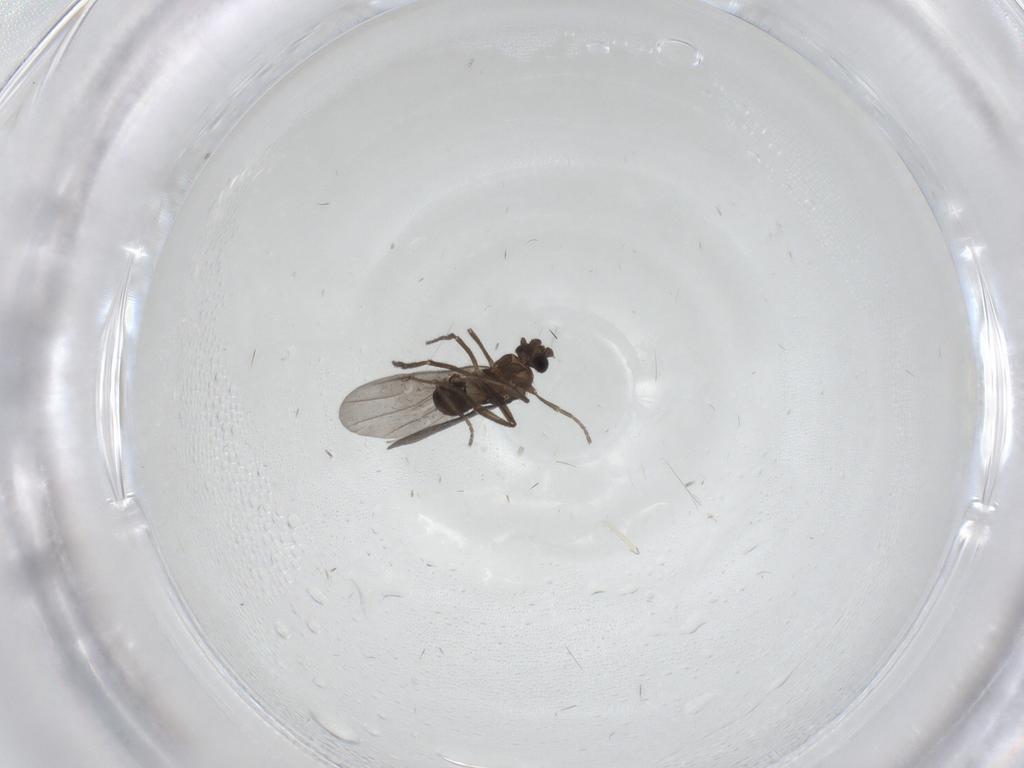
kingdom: Animalia
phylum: Arthropoda
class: Insecta
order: Diptera
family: Phoridae
